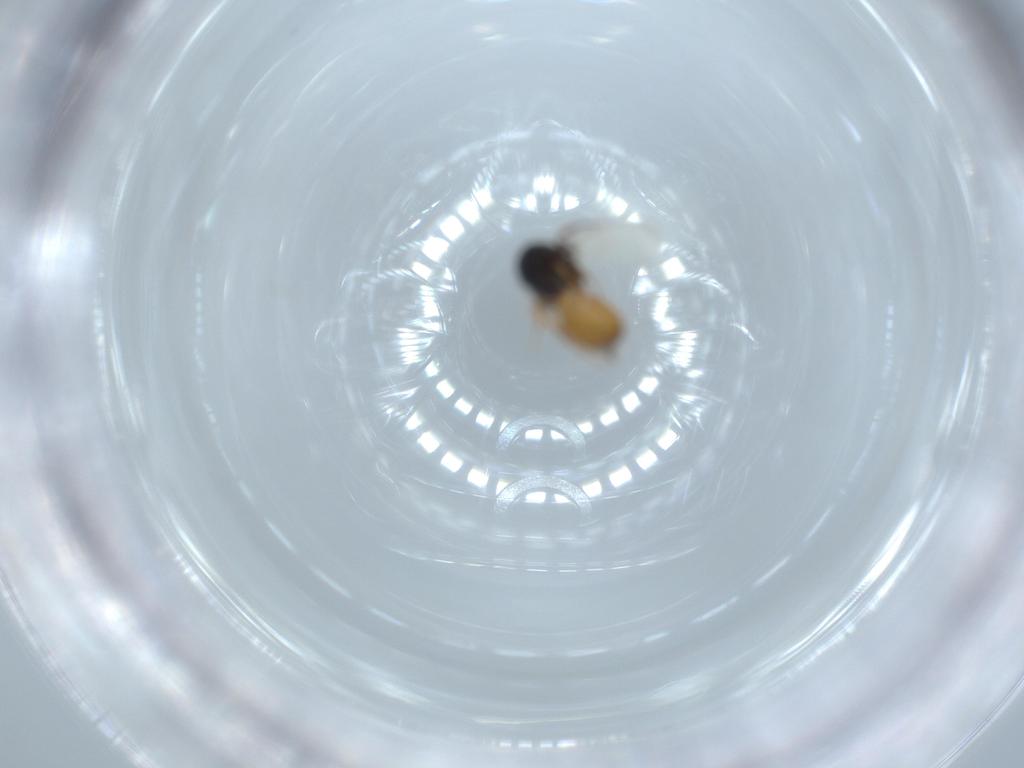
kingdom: Animalia
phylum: Arthropoda
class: Insecta
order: Hymenoptera
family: Scelionidae
